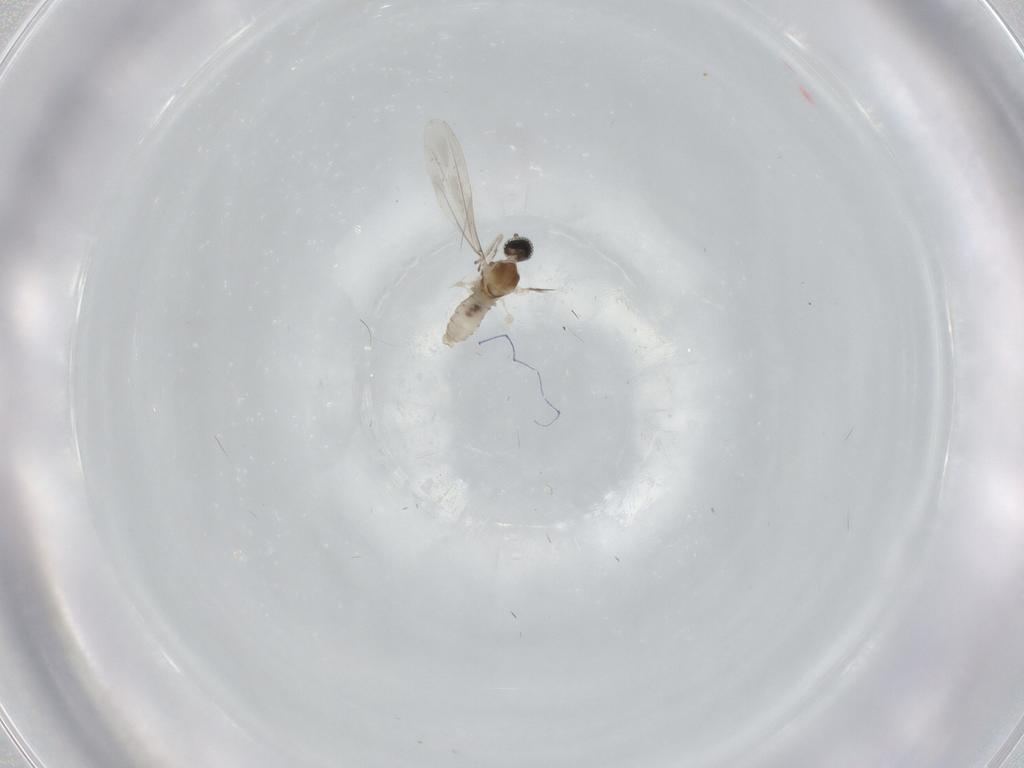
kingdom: Animalia
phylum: Arthropoda
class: Insecta
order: Diptera
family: Cecidomyiidae
